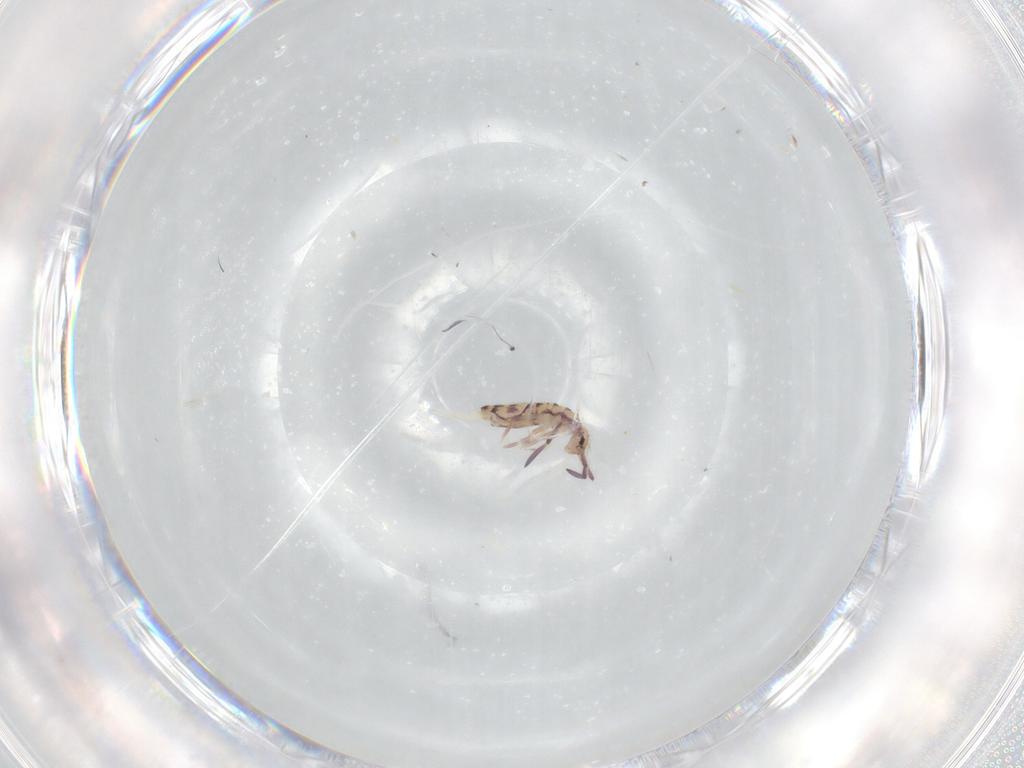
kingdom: Animalia
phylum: Arthropoda
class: Collembola
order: Entomobryomorpha
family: Entomobryidae
